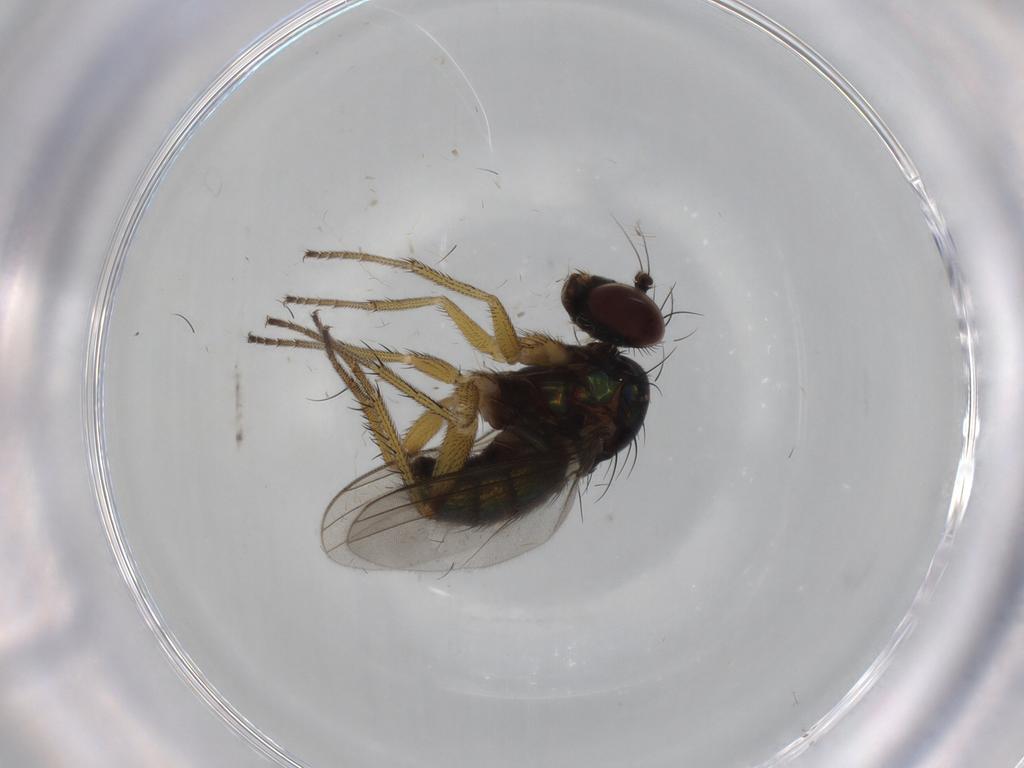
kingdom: Animalia
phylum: Arthropoda
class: Insecta
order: Diptera
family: Dolichopodidae
